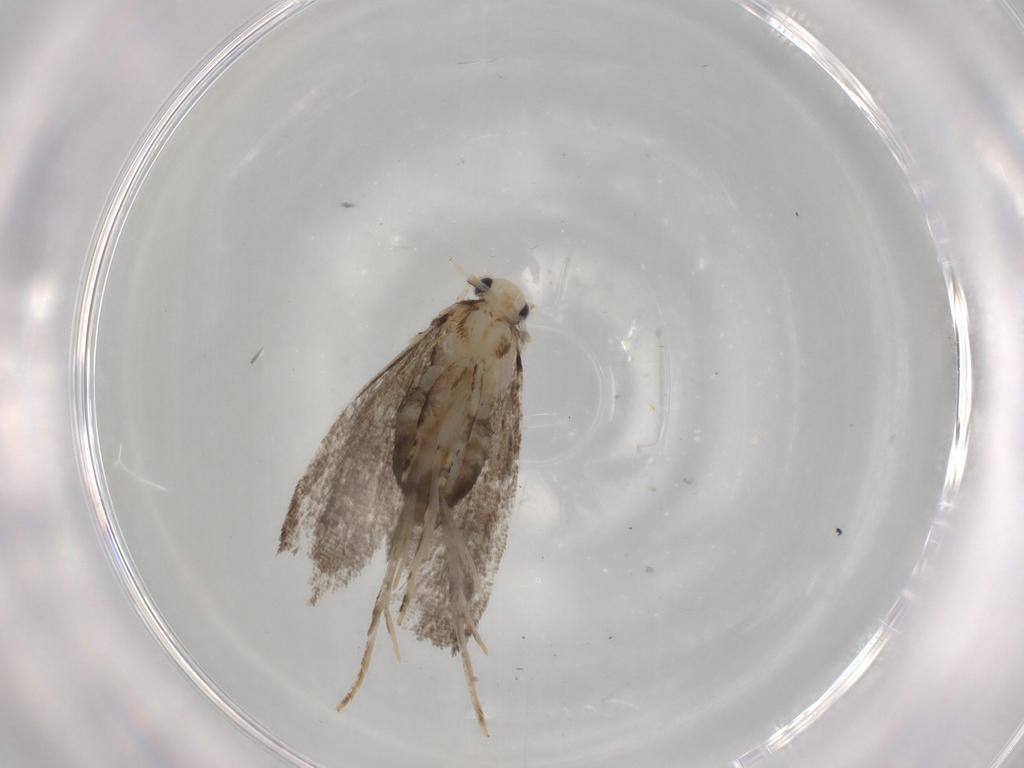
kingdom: Animalia
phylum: Arthropoda
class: Insecta
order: Lepidoptera
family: Tineidae
